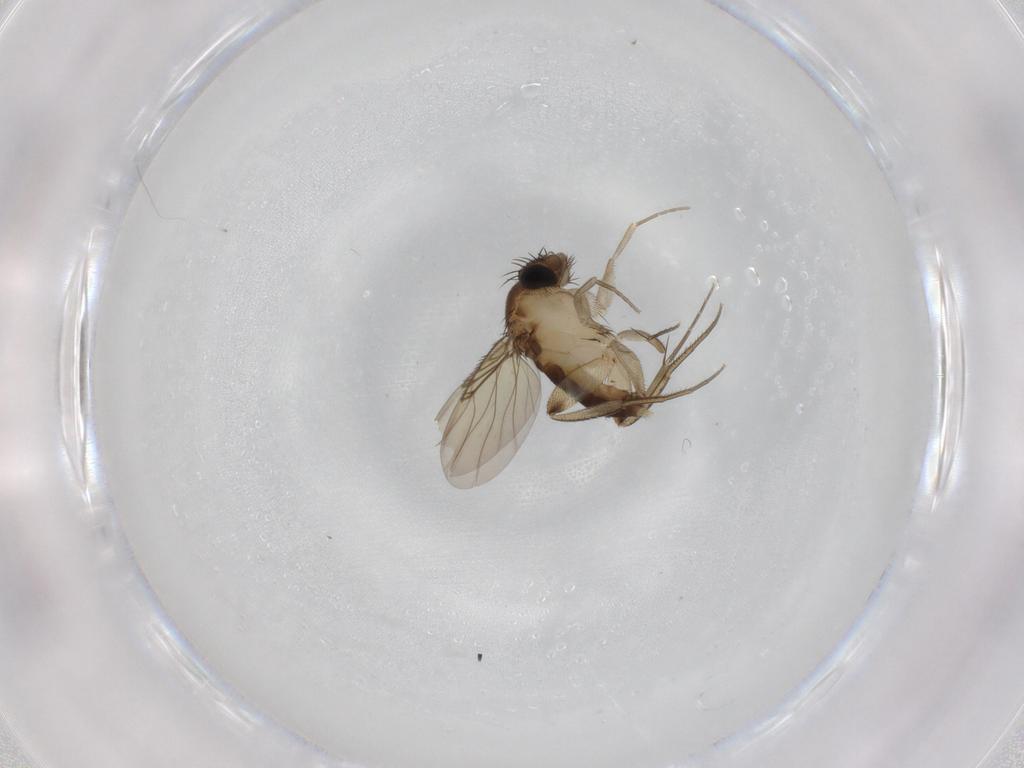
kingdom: Animalia
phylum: Arthropoda
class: Insecta
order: Diptera
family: Phoridae
